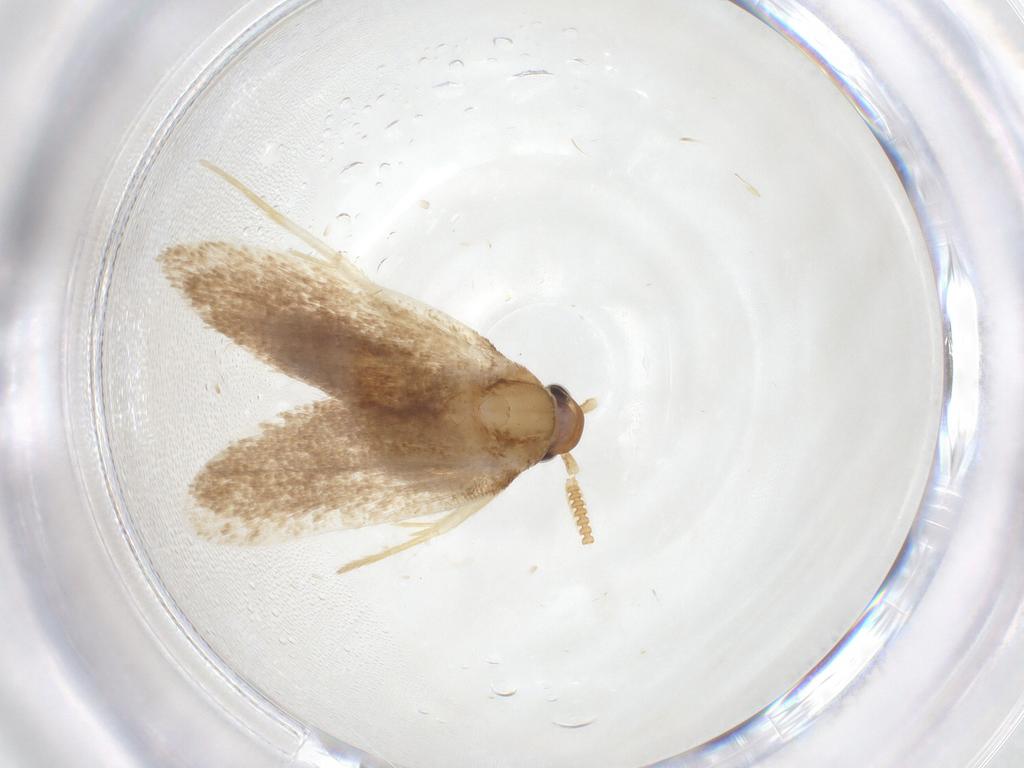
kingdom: Animalia
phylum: Arthropoda
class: Insecta
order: Lepidoptera
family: Lecithoceridae
